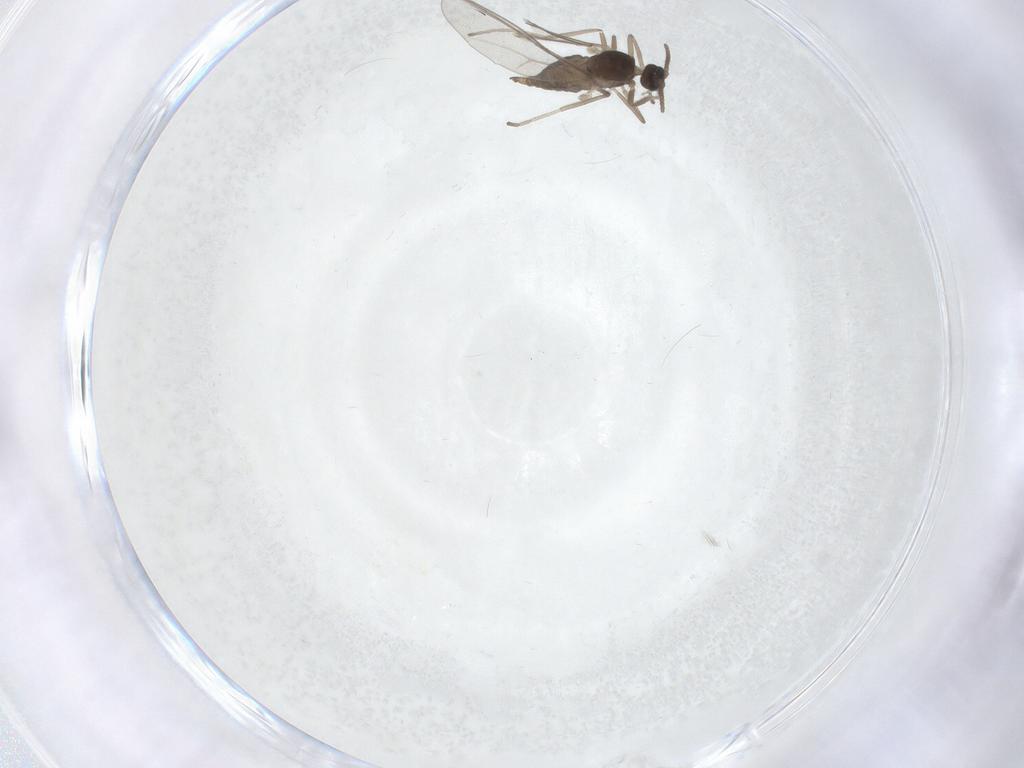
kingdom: Animalia
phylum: Arthropoda
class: Insecta
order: Diptera
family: Cecidomyiidae
